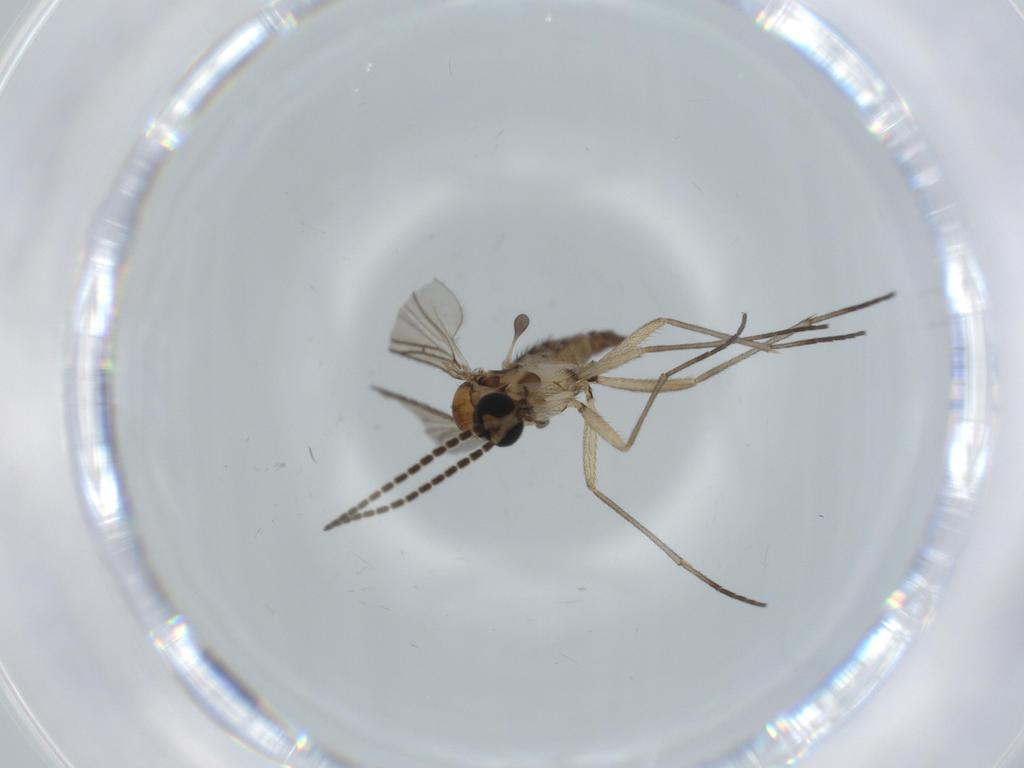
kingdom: Animalia
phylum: Arthropoda
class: Insecta
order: Diptera
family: Sciaridae
